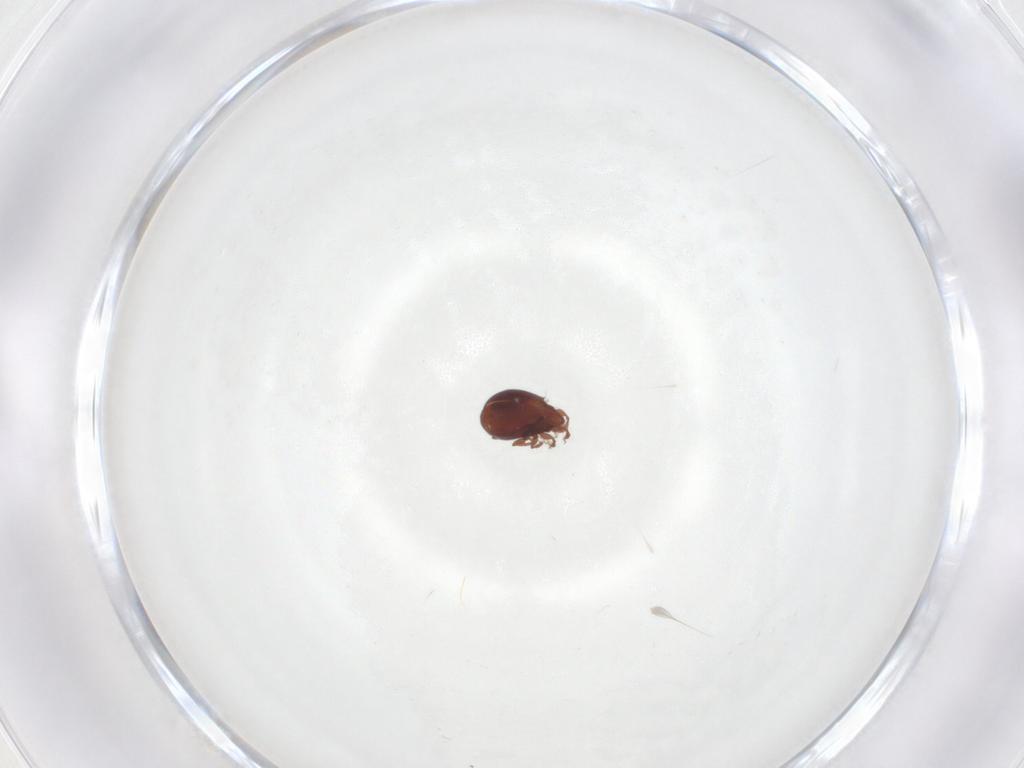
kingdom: Animalia
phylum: Arthropoda
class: Arachnida
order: Sarcoptiformes
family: Humerobatidae
